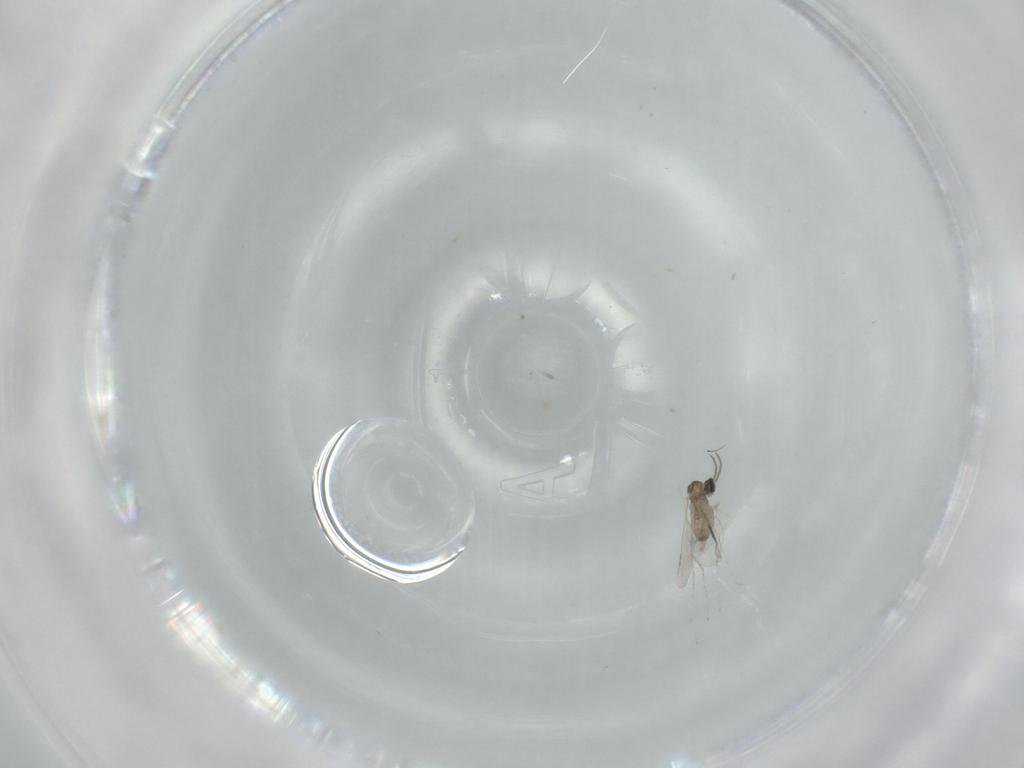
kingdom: Animalia
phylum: Arthropoda
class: Insecta
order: Diptera
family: Cecidomyiidae
